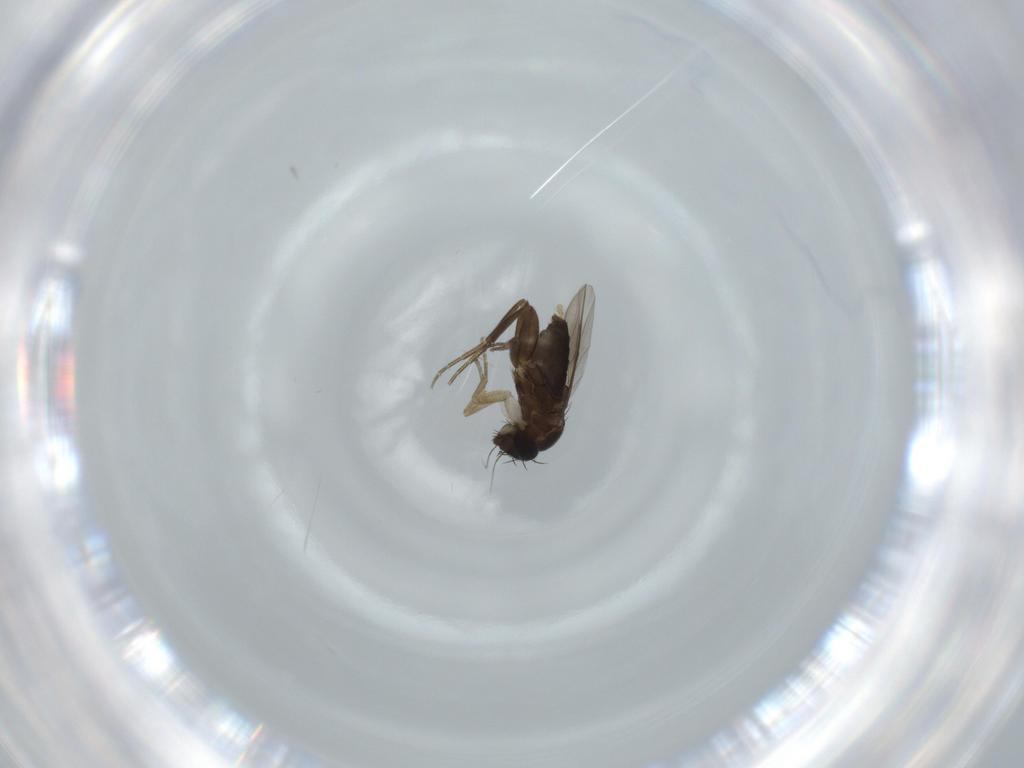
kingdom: Animalia
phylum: Arthropoda
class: Insecta
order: Diptera
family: Phoridae
